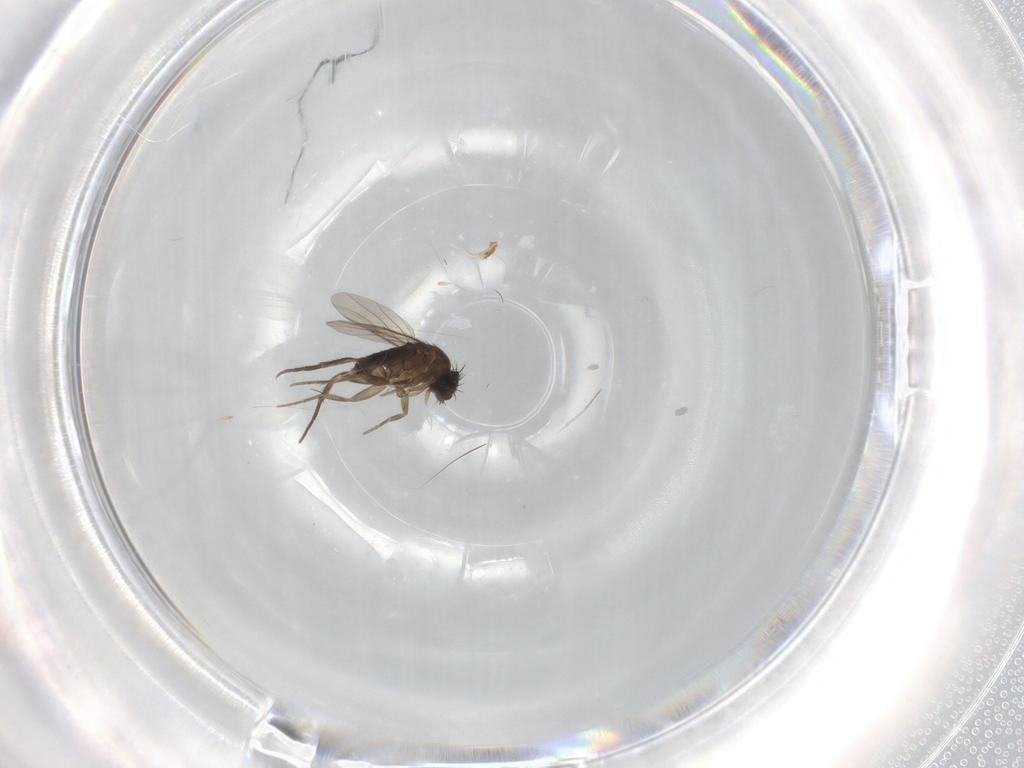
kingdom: Animalia
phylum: Arthropoda
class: Insecta
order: Diptera
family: Phoridae
